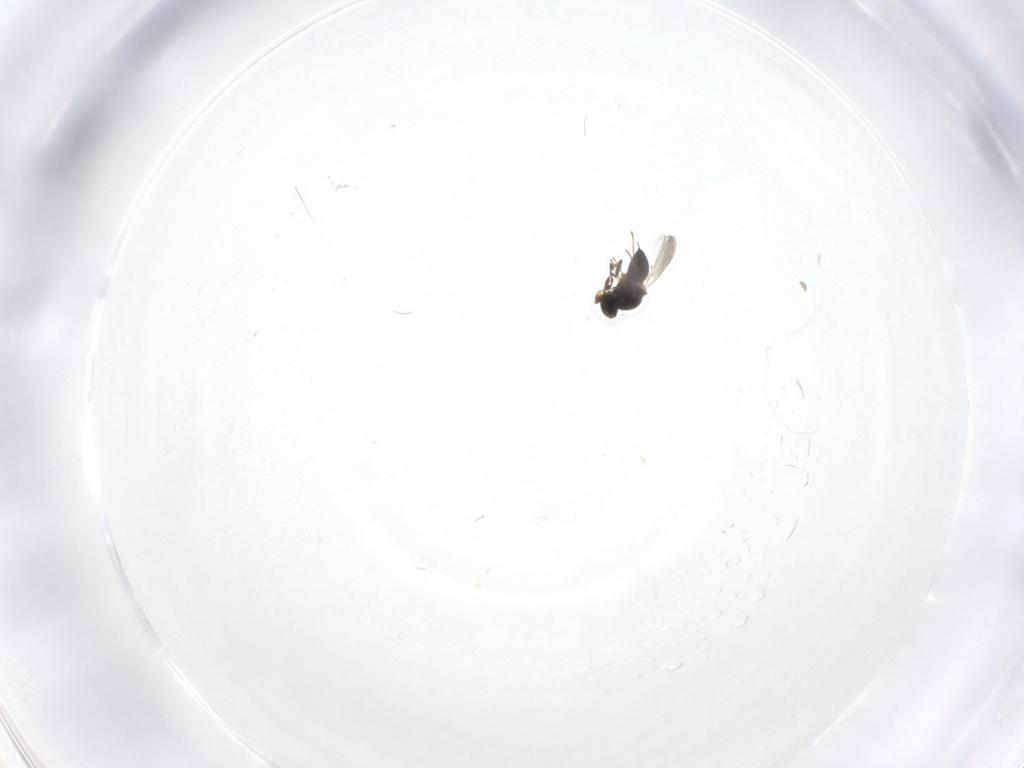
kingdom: Animalia
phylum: Arthropoda
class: Insecta
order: Hymenoptera
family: Platygastridae
